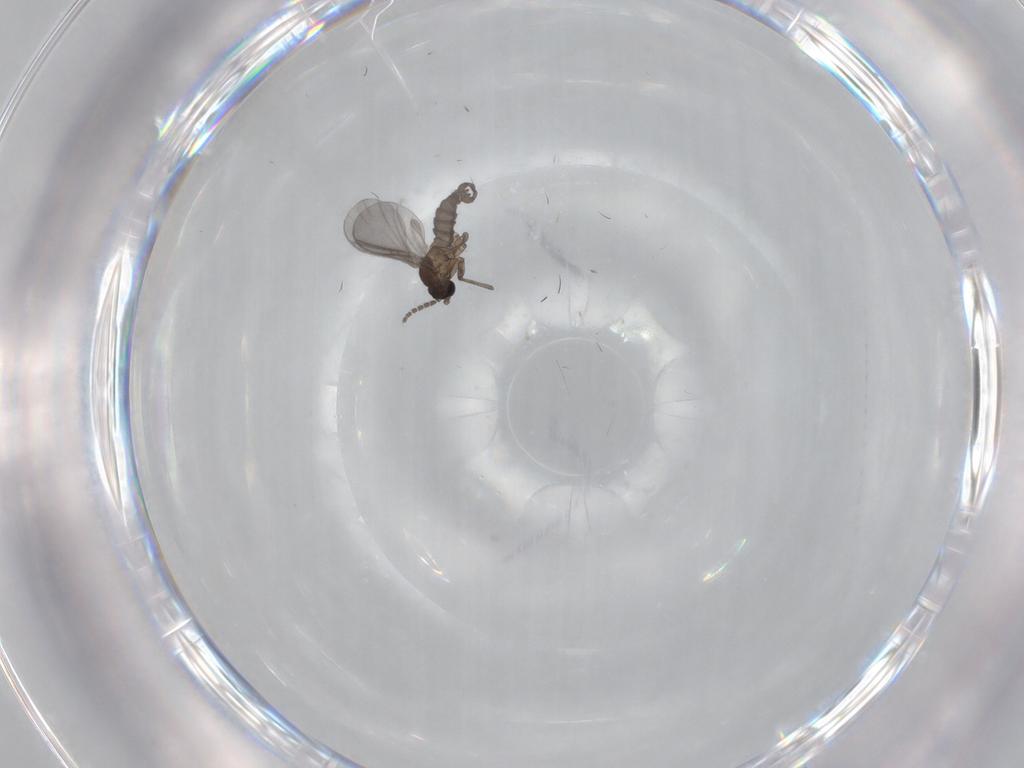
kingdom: Animalia
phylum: Arthropoda
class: Insecta
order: Diptera
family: Sciaridae
